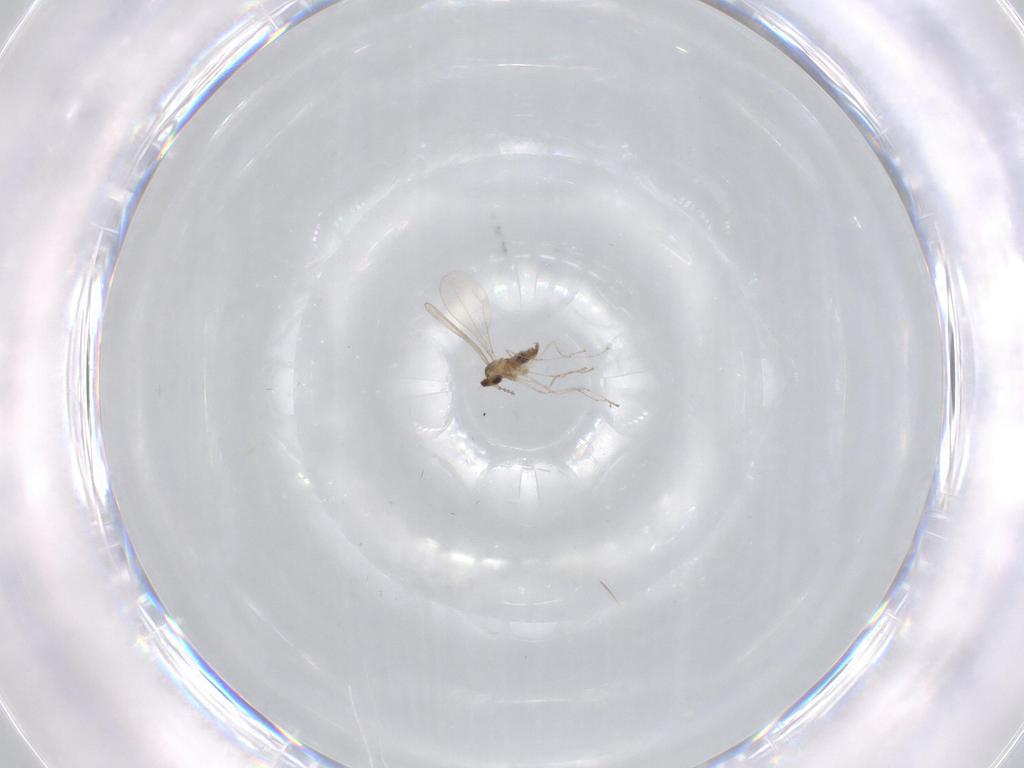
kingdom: Animalia
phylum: Arthropoda
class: Insecta
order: Diptera
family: Cecidomyiidae
